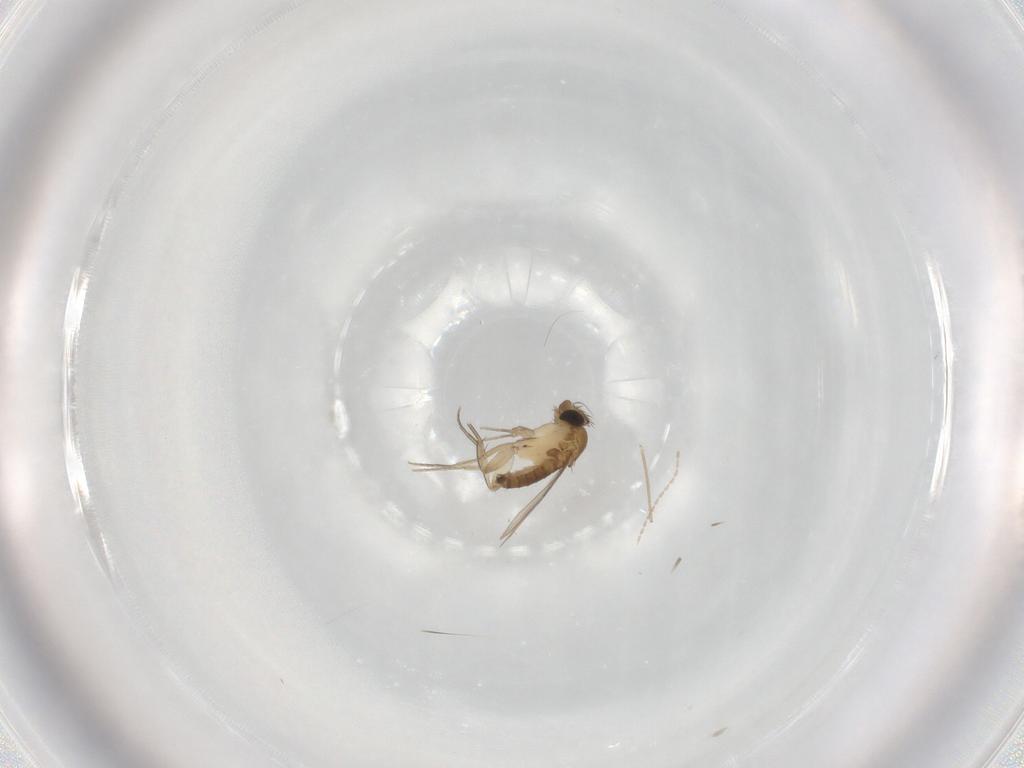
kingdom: Animalia
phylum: Arthropoda
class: Insecta
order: Diptera
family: Cecidomyiidae
